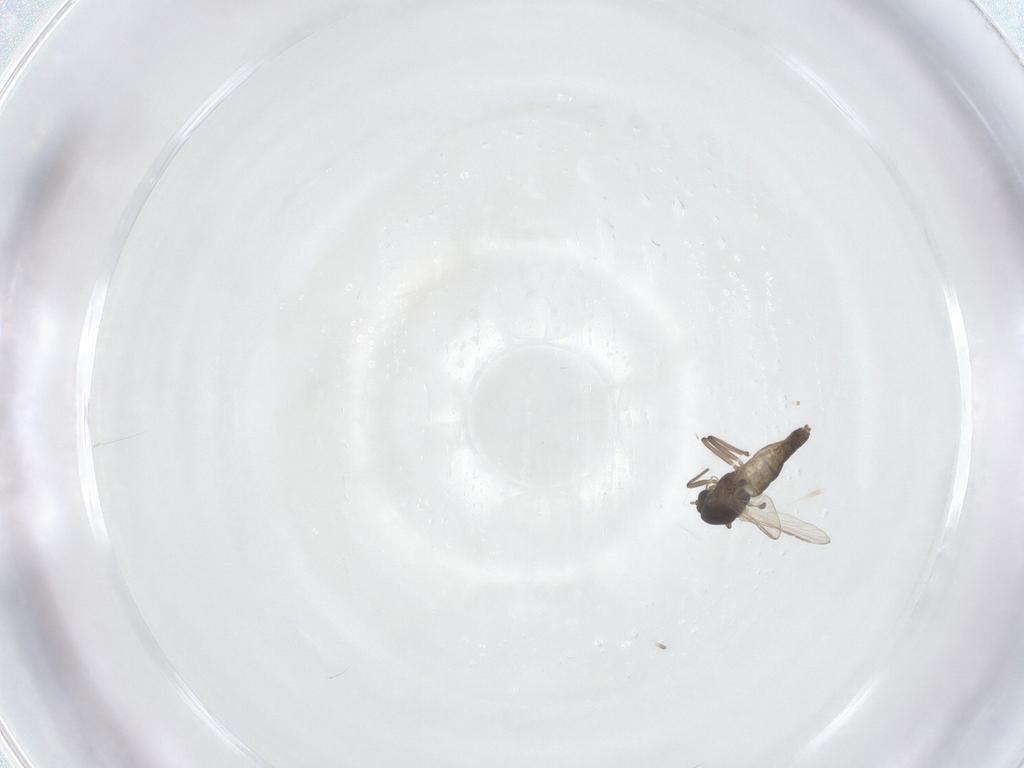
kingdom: Animalia
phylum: Arthropoda
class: Insecta
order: Diptera
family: Chironomidae
